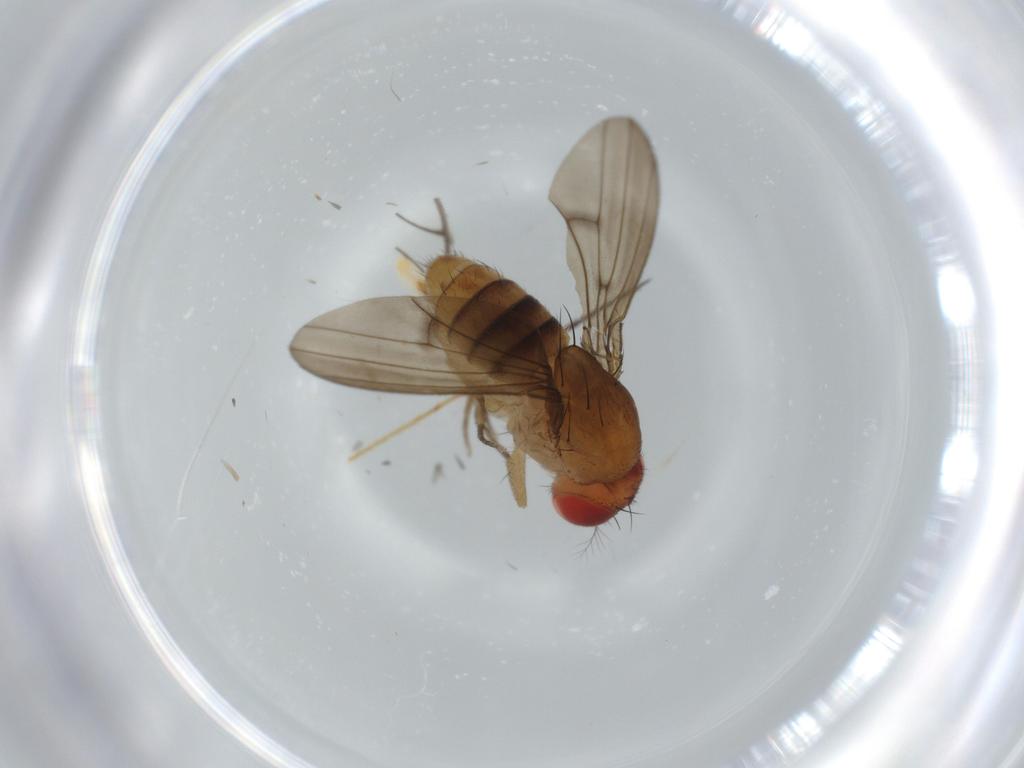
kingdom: Animalia
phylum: Arthropoda
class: Insecta
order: Diptera
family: Drosophilidae
